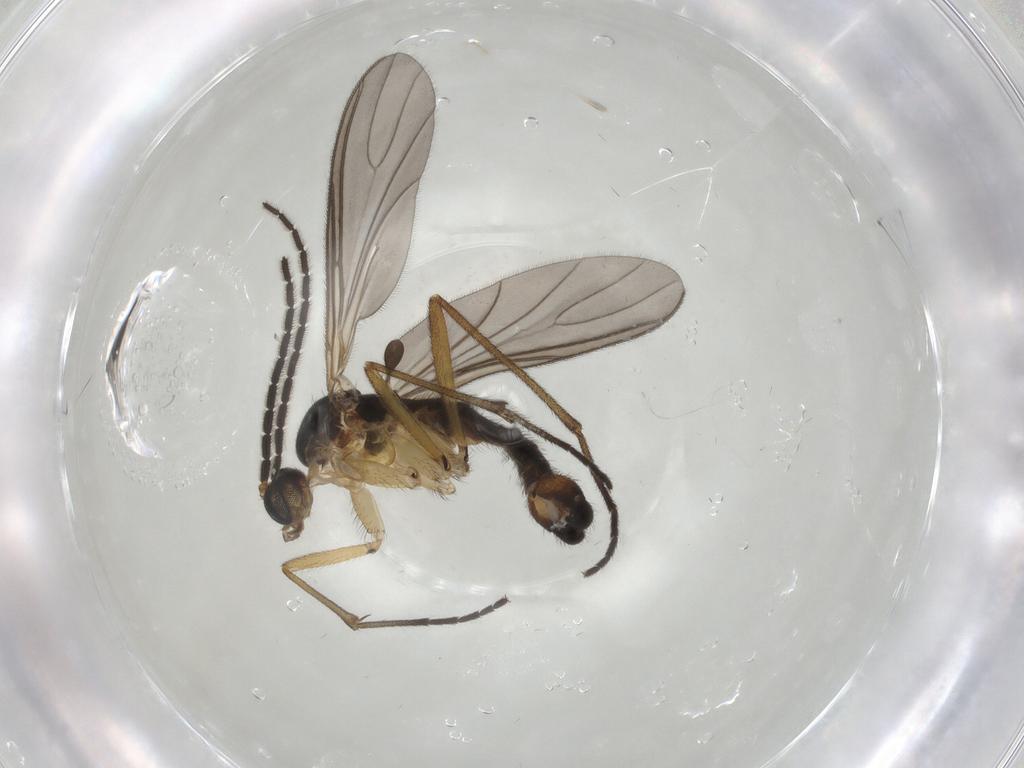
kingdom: Animalia
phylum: Arthropoda
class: Insecta
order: Diptera
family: Sciaridae
